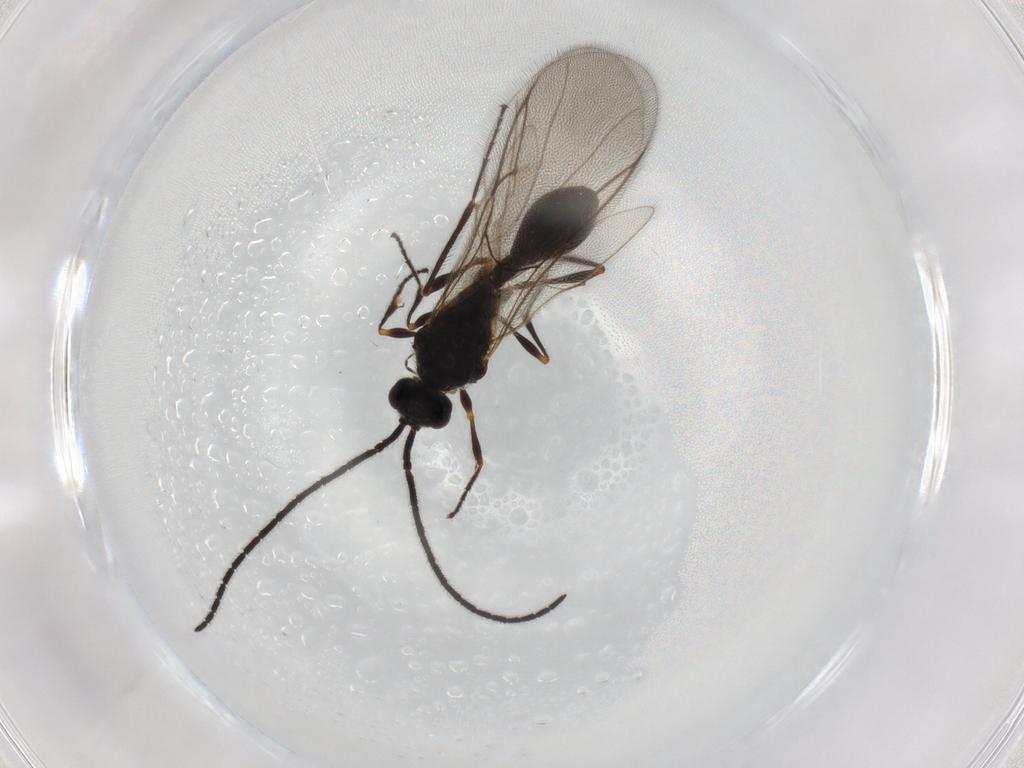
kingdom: Animalia
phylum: Arthropoda
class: Insecta
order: Hymenoptera
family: Diapriidae
